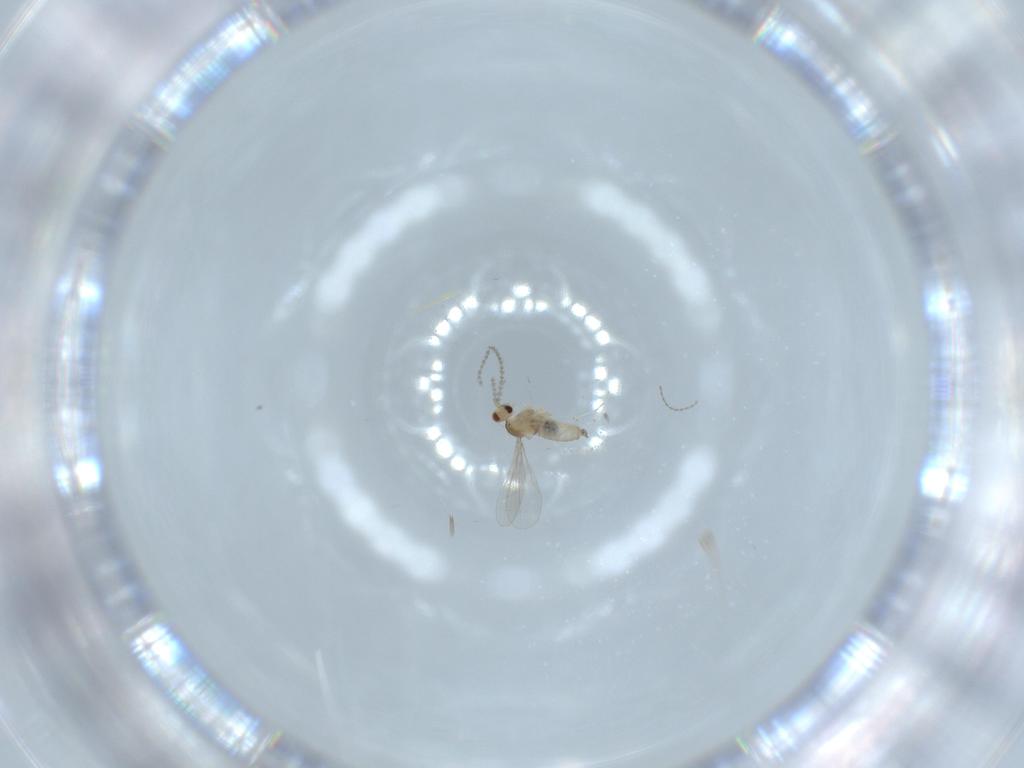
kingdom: Animalia
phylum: Arthropoda
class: Insecta
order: Diptera
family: Cecidomyiidae
